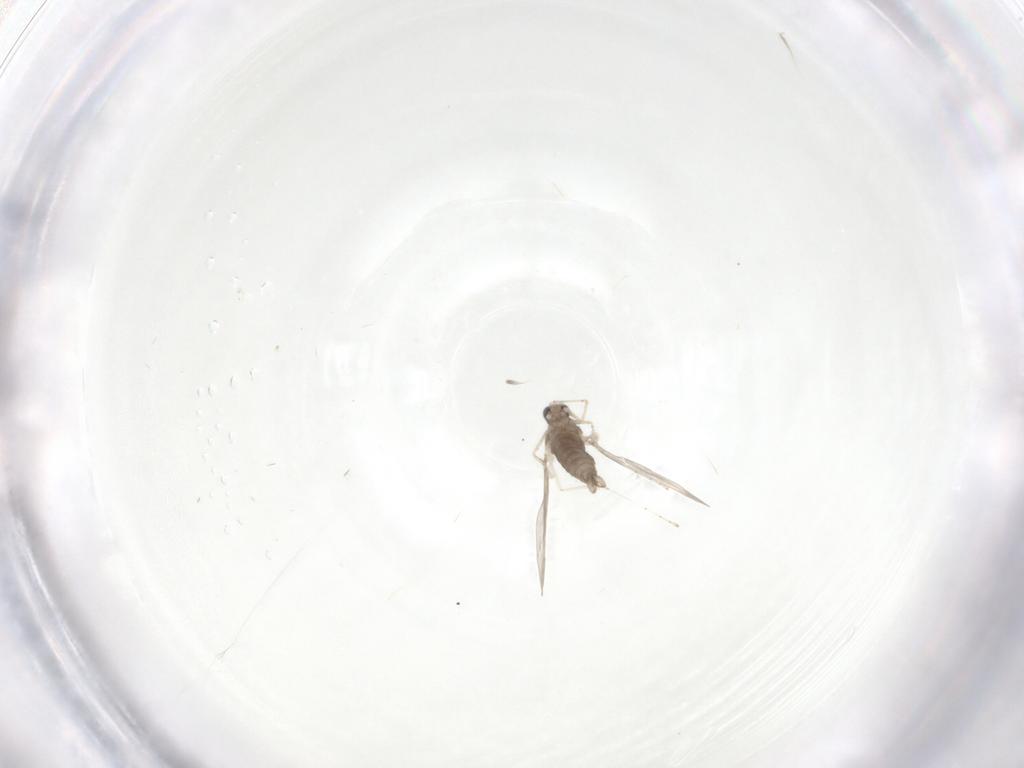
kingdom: Animalia
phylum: Arthropoda
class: Insecta
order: Diptera
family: Cecidomyiidae
